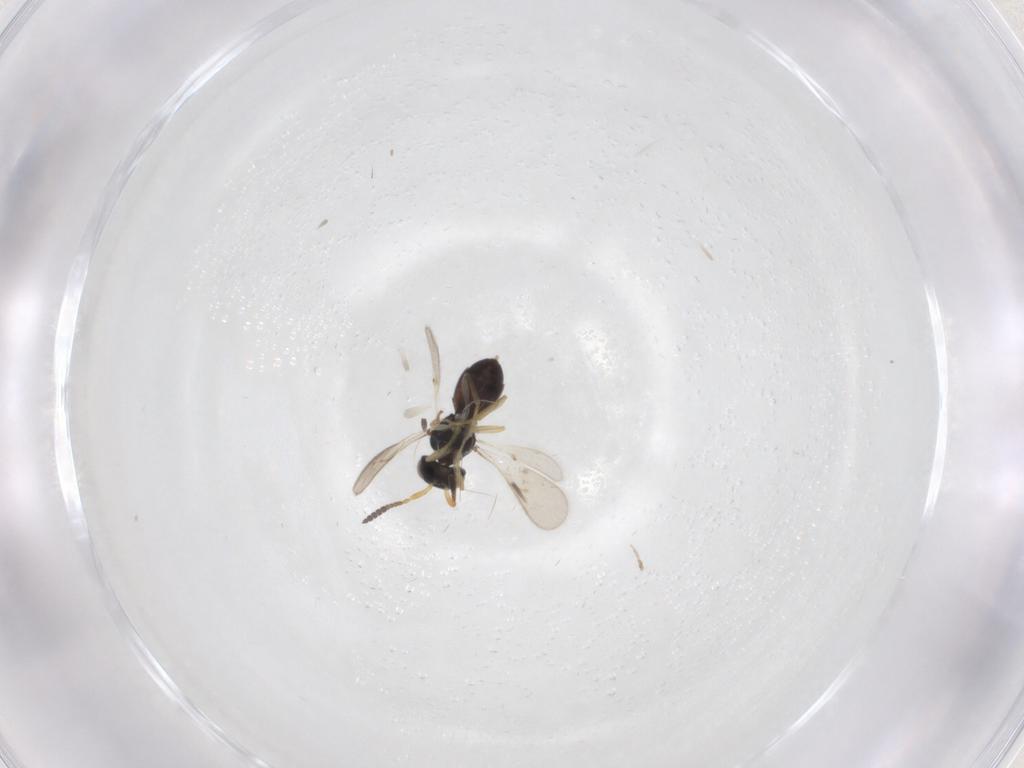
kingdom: Animalia
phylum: Arthropoda
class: Insecta
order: Hymenoptera
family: Scelionidae
